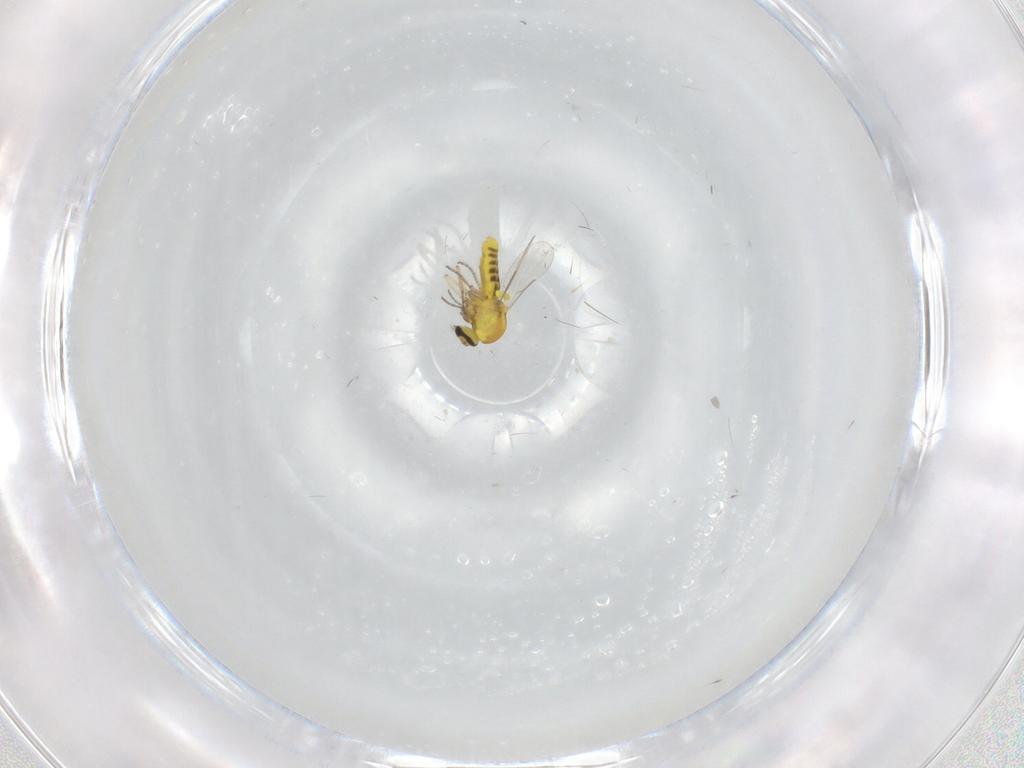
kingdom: Animalia
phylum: Arthropoda
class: Insecta
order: Diptera
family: Ceratopogonidae
